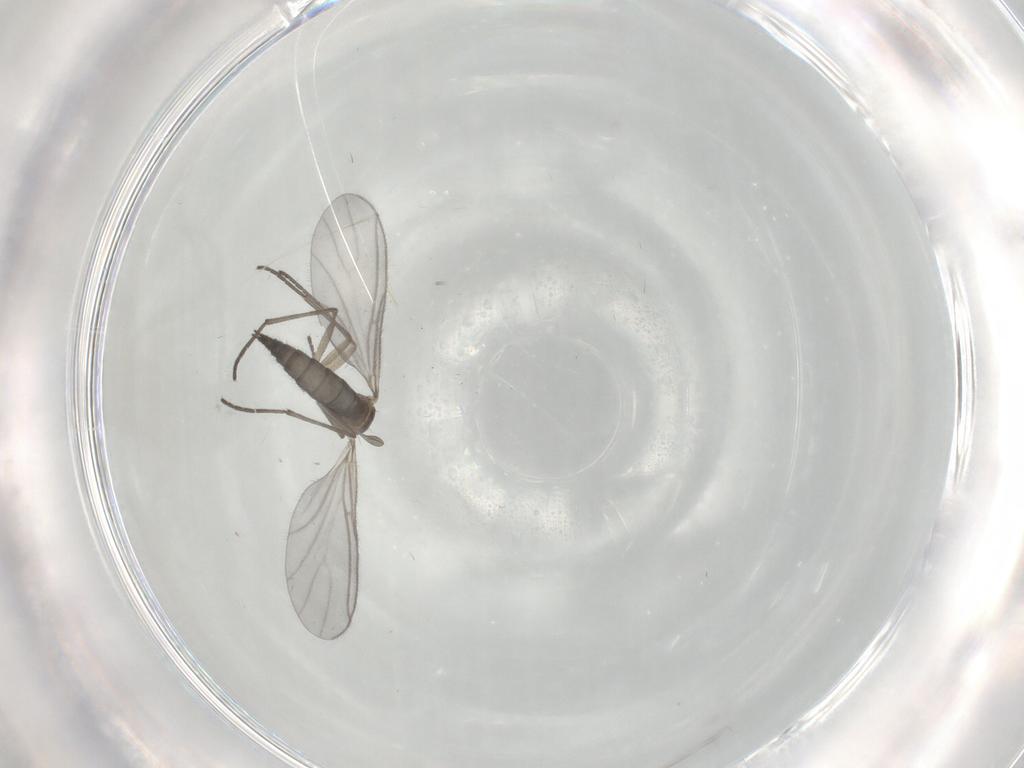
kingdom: Animalia
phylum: Arthropoda
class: Insecta
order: Diptera
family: Sciaridae
